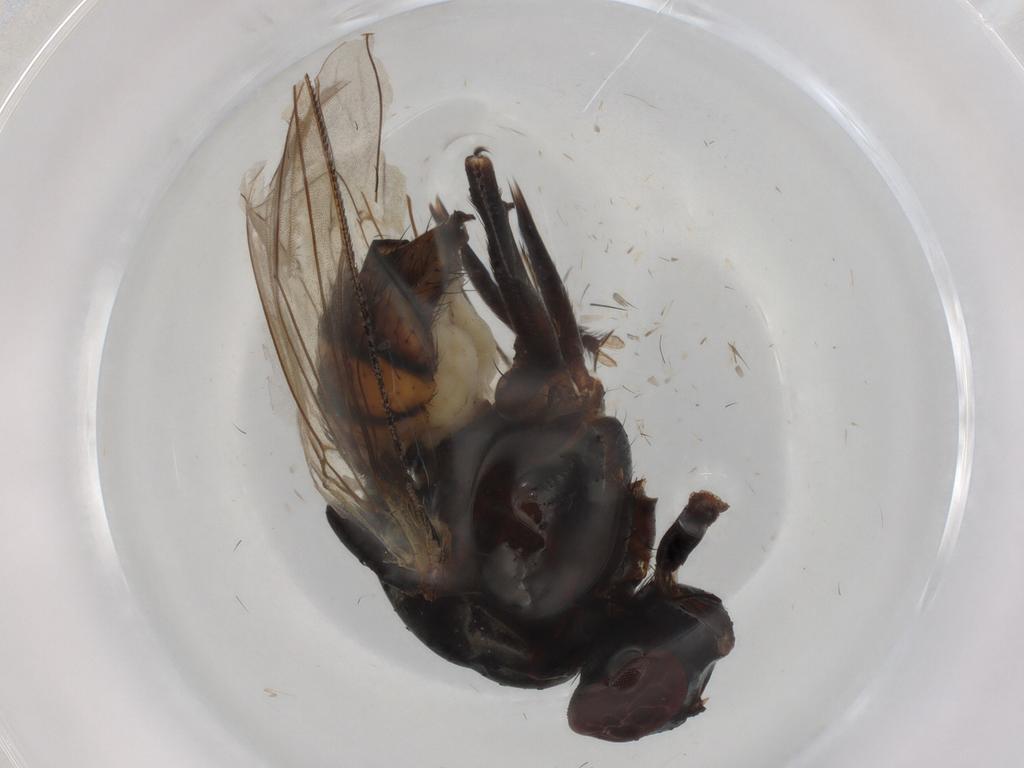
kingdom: Animalia
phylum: Arthropoda
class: Insecta
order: Diptera
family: Anthomyiidae
